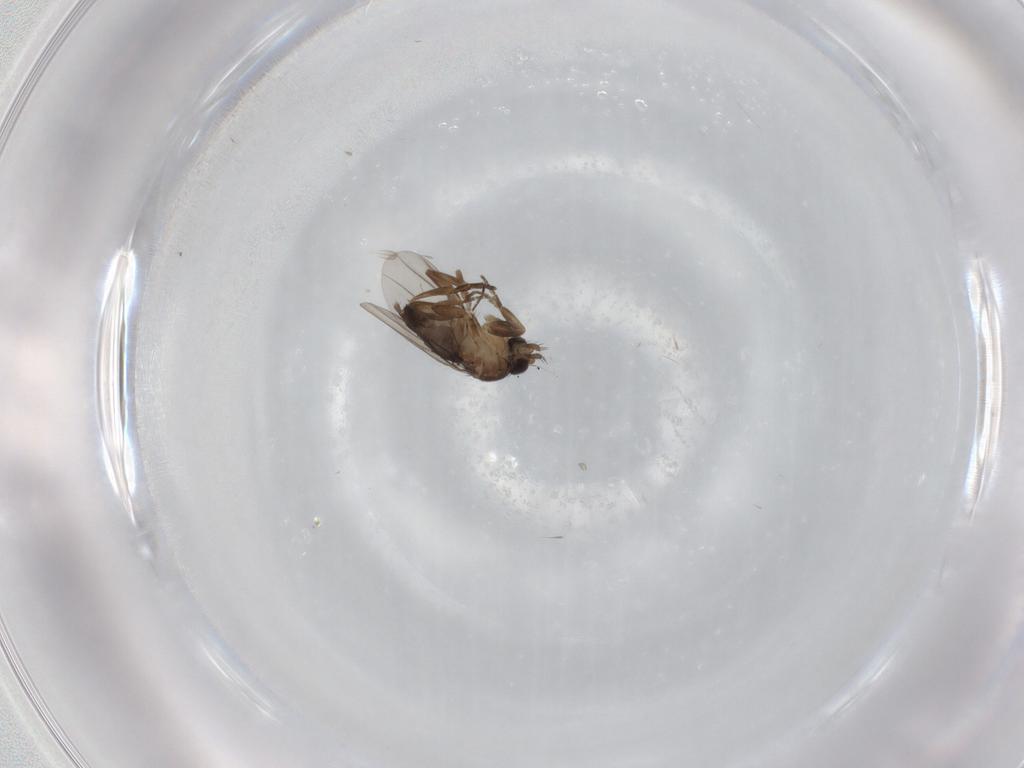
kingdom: Animalia
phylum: Arthropoda
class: Insecta
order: Diptera
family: Phoridae
